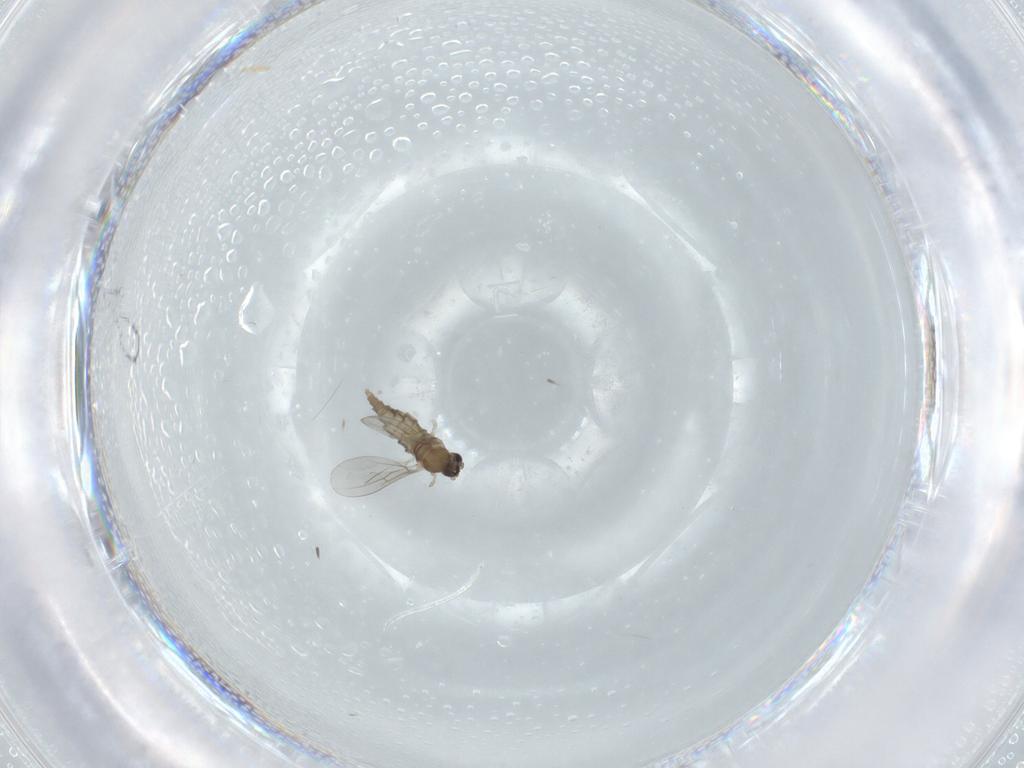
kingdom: Animalia
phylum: Arthropoda
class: Insecta
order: Diptera
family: Cecidomyiidae
